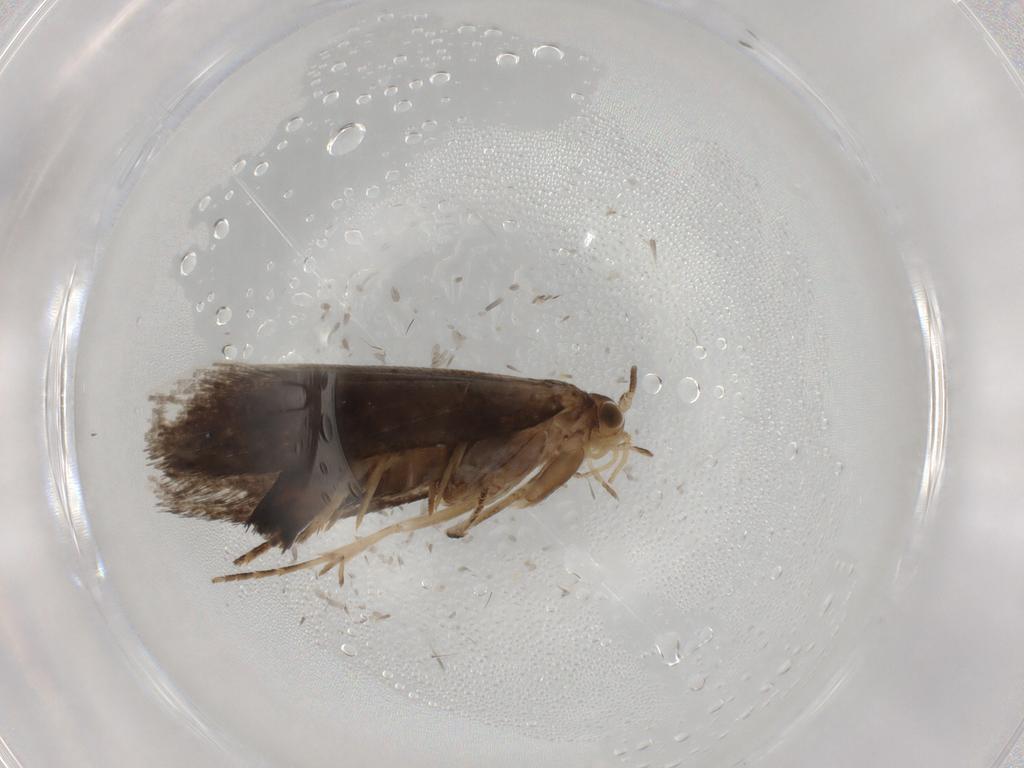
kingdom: Animalia
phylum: Arthropoda
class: Insecta
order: Lepidoptera
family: Tineidae
